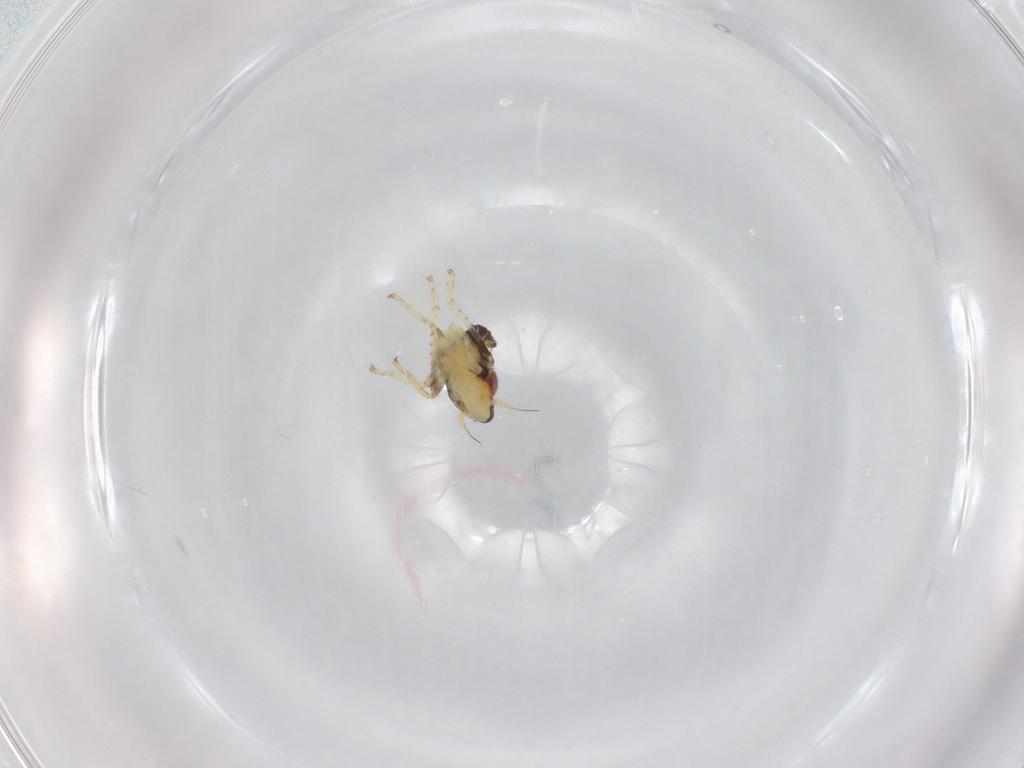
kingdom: Animalia
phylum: Arthropoda
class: Insecta
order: Hemiptera
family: Cicadellidae
